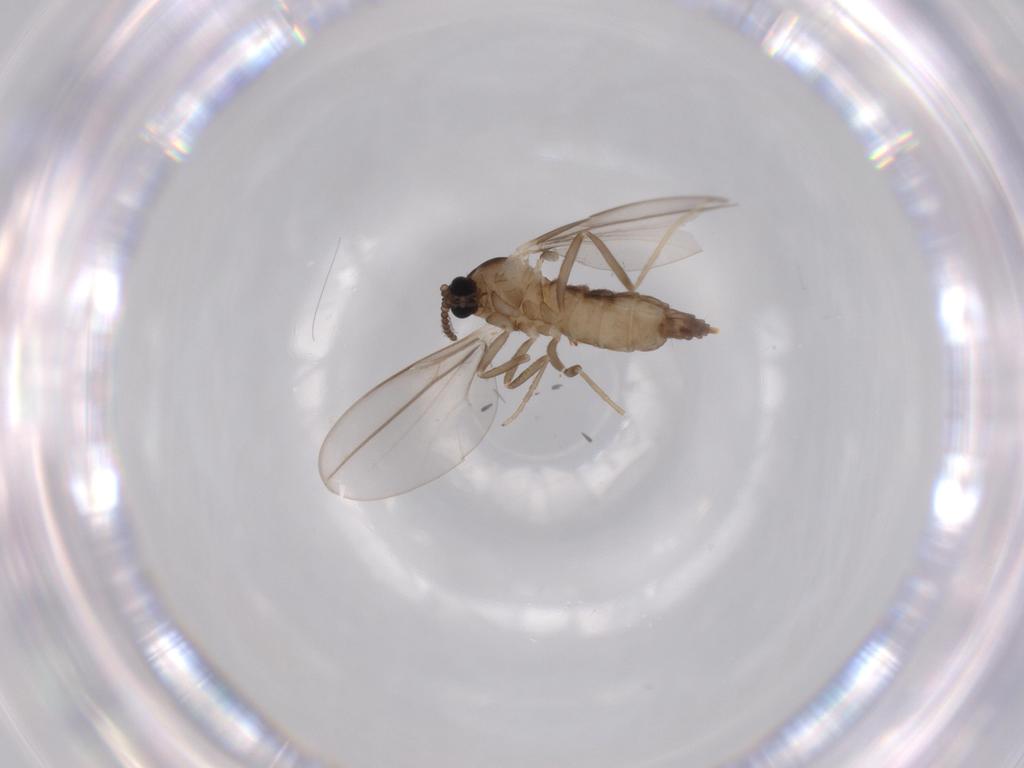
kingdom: Animalia
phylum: Arthropoda
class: Insecta
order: Diptera
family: Cecidomyiidae
